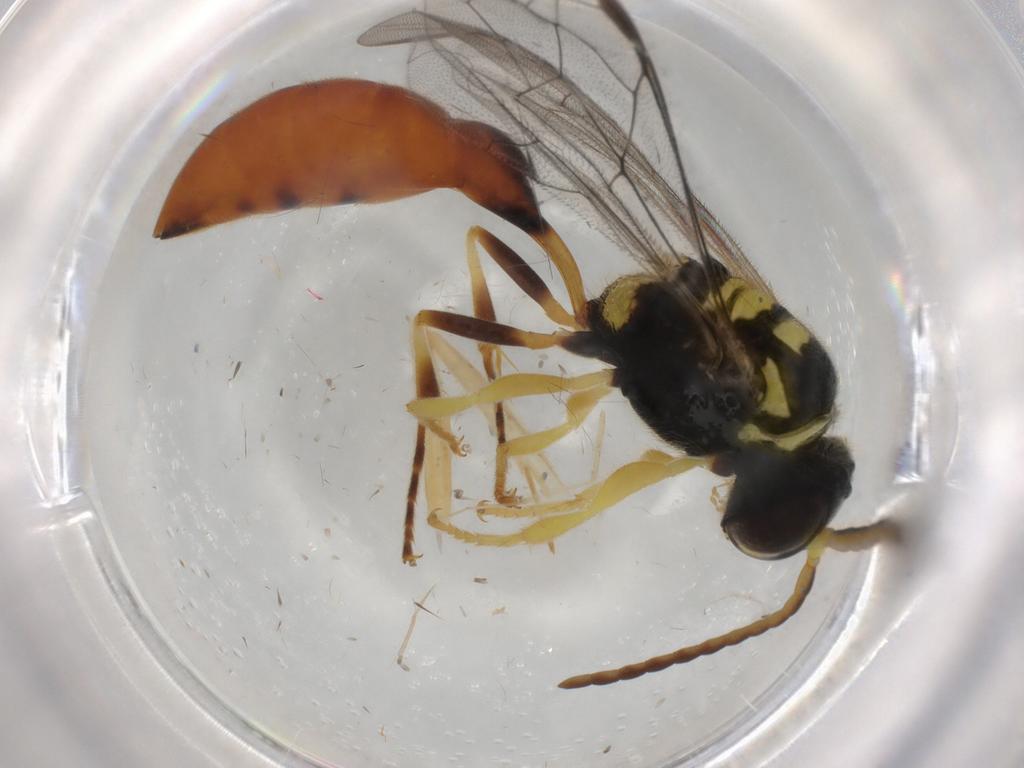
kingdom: Animalia
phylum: Arthropoda
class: Insecta
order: Hymenoptera
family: Crabronidae
